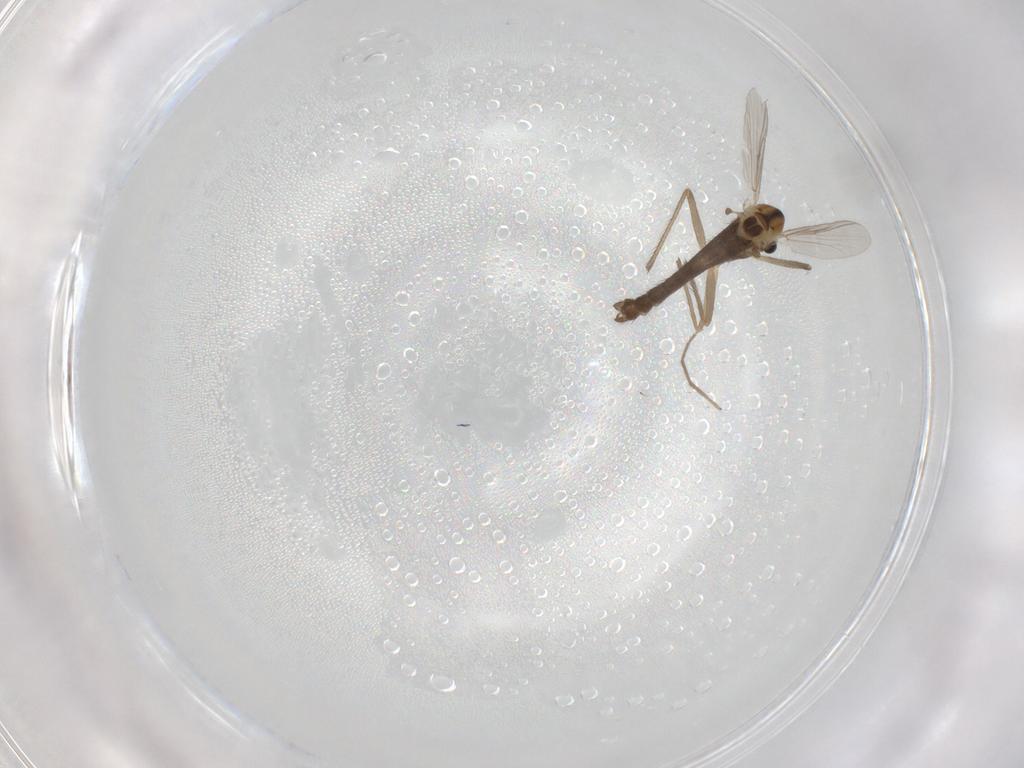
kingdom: Animalia
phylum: Arthropoda
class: Insecta
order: Diptera
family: Chironomidae
